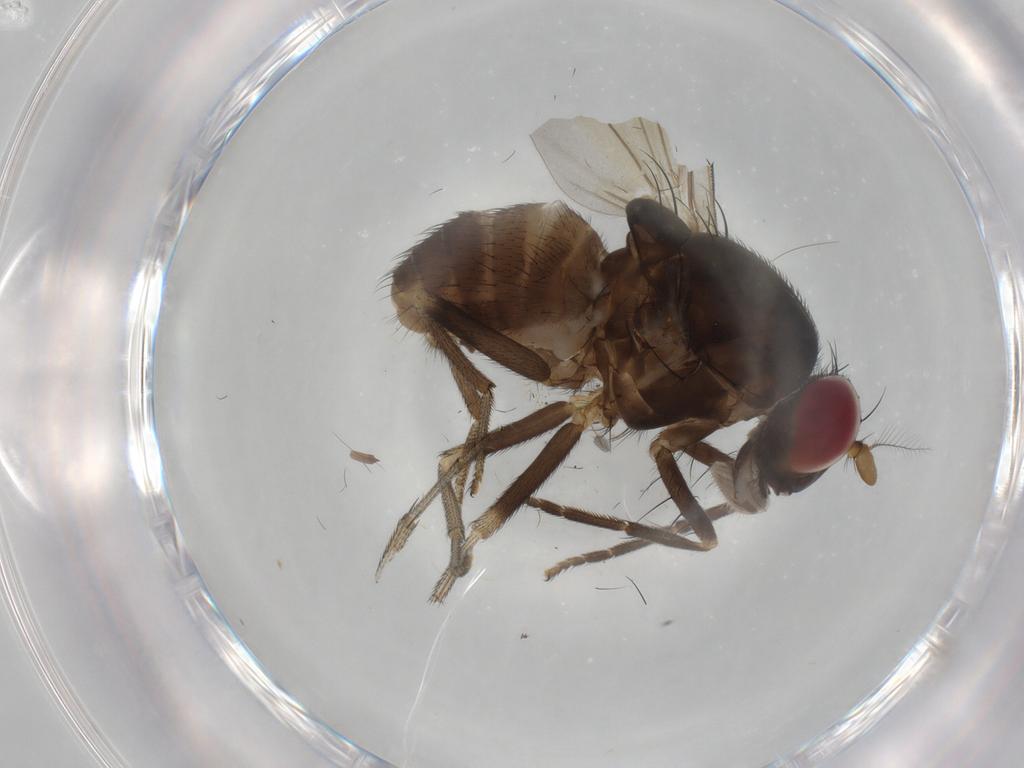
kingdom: Animalia
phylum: Arthropoda
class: Insecta
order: Diptera
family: Lauxaniidae
